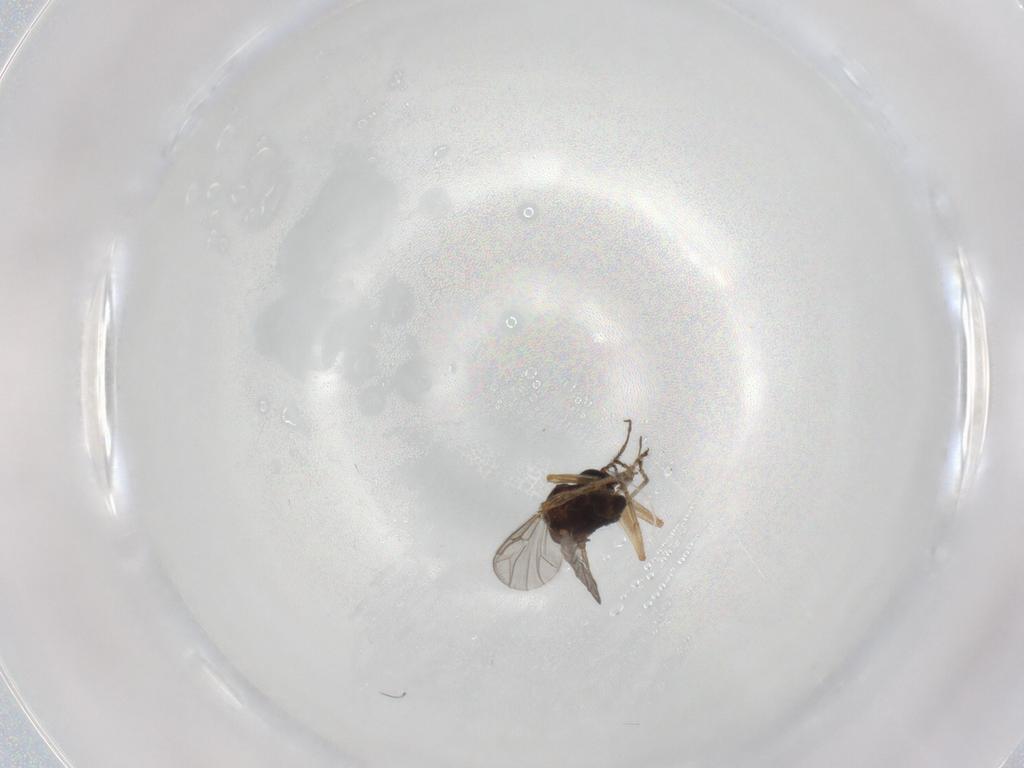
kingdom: Animalia
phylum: Arthropoda
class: Insecta
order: Diptera
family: Ceratopogonidae
